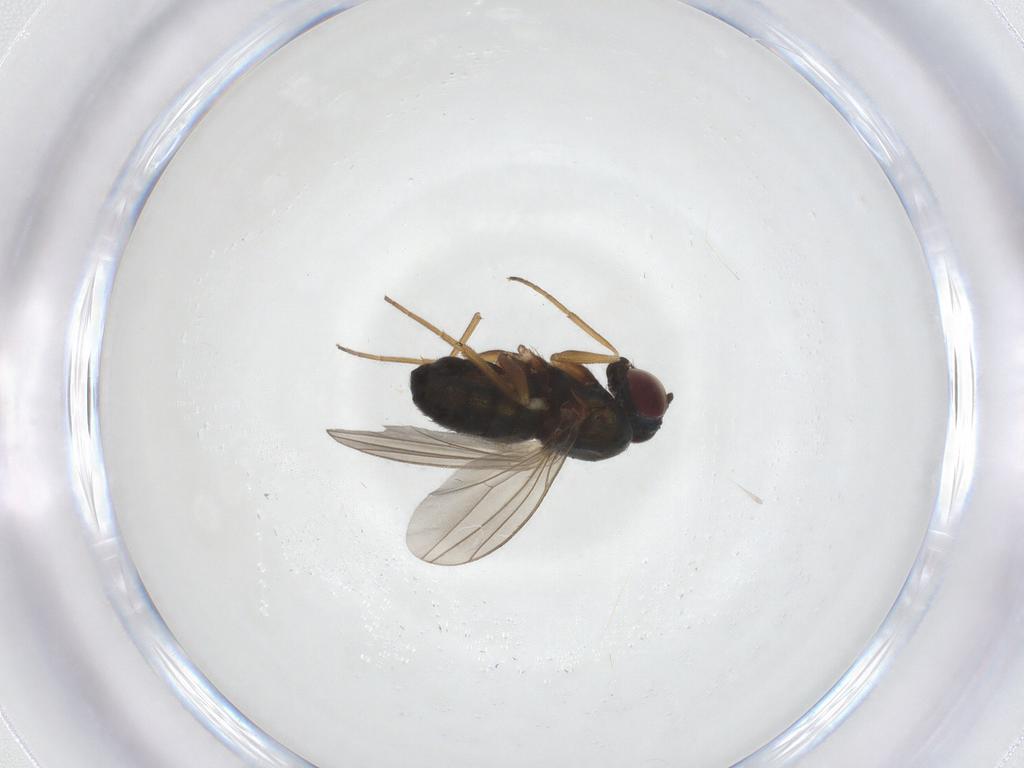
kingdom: Animalia
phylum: Arthropoda
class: Insecta
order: Diptera
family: Dolichopodidae
